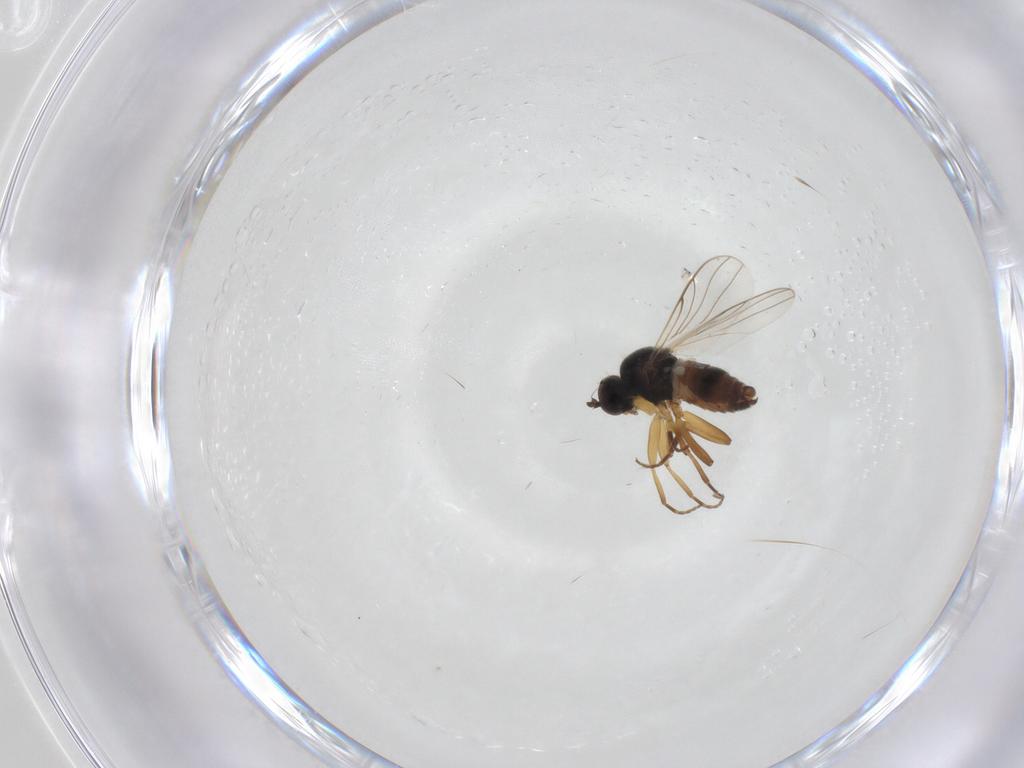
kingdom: Animalia
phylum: Arthropoda
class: Insecta
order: Diptera
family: Hybotidae
